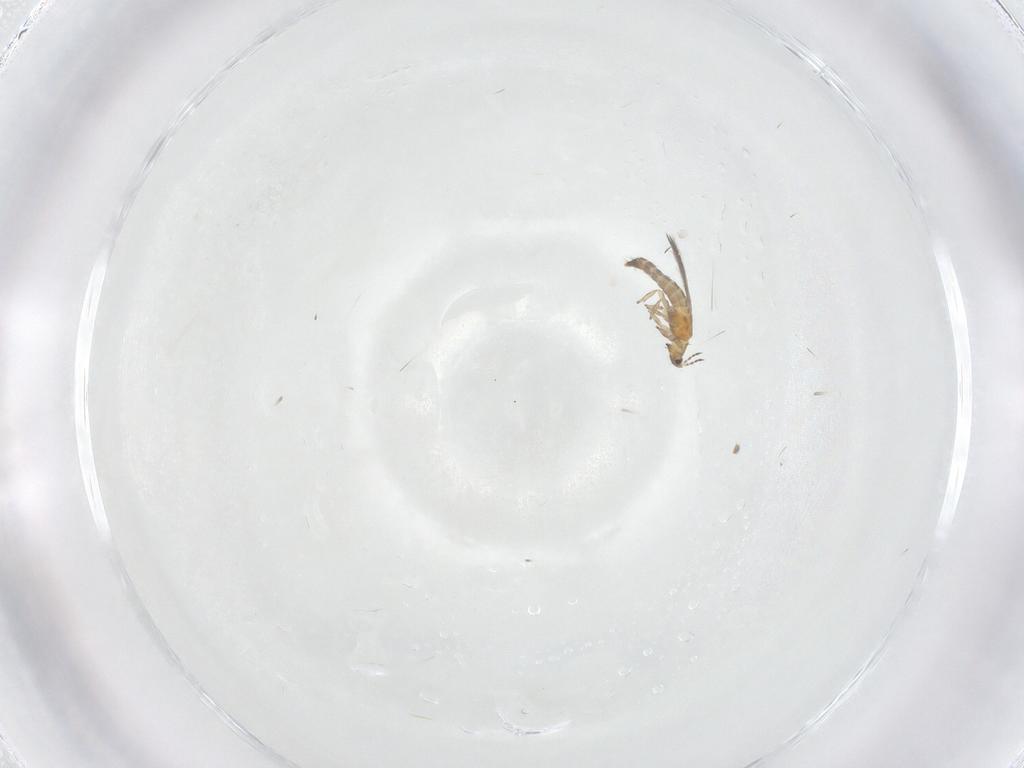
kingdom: Animalia
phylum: Arthropoda
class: Insecta
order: Thysanoptera
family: Thripidae
